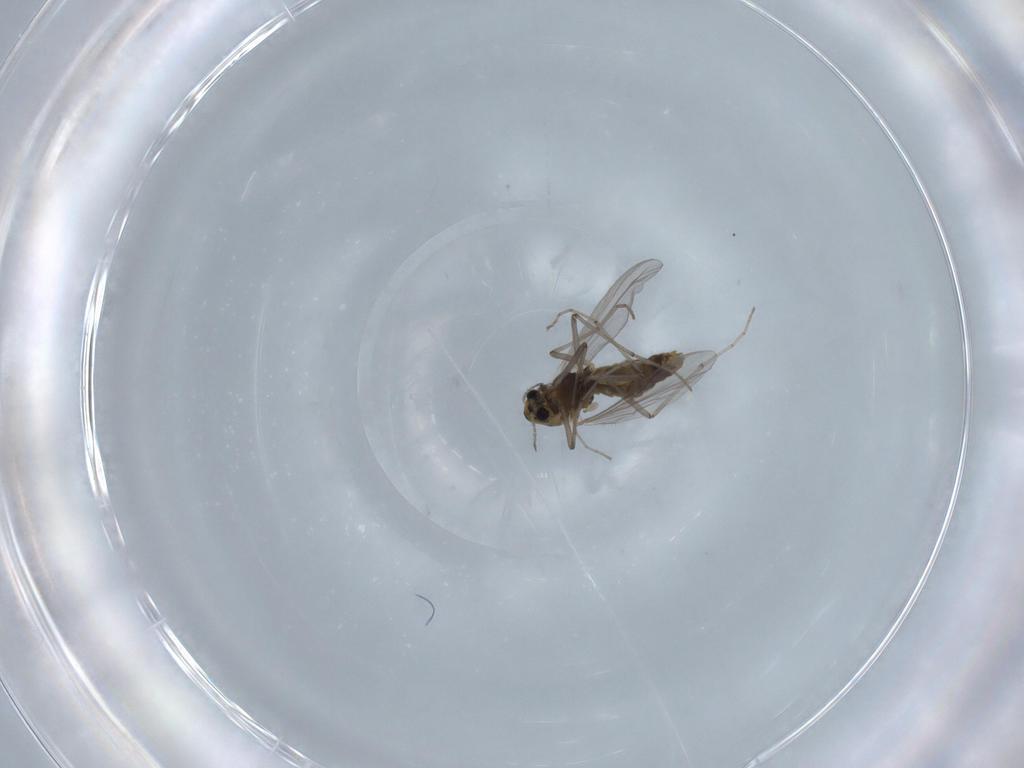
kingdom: Animalia
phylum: Arthropoda
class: Insecta
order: Diptera
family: Chironomidae
